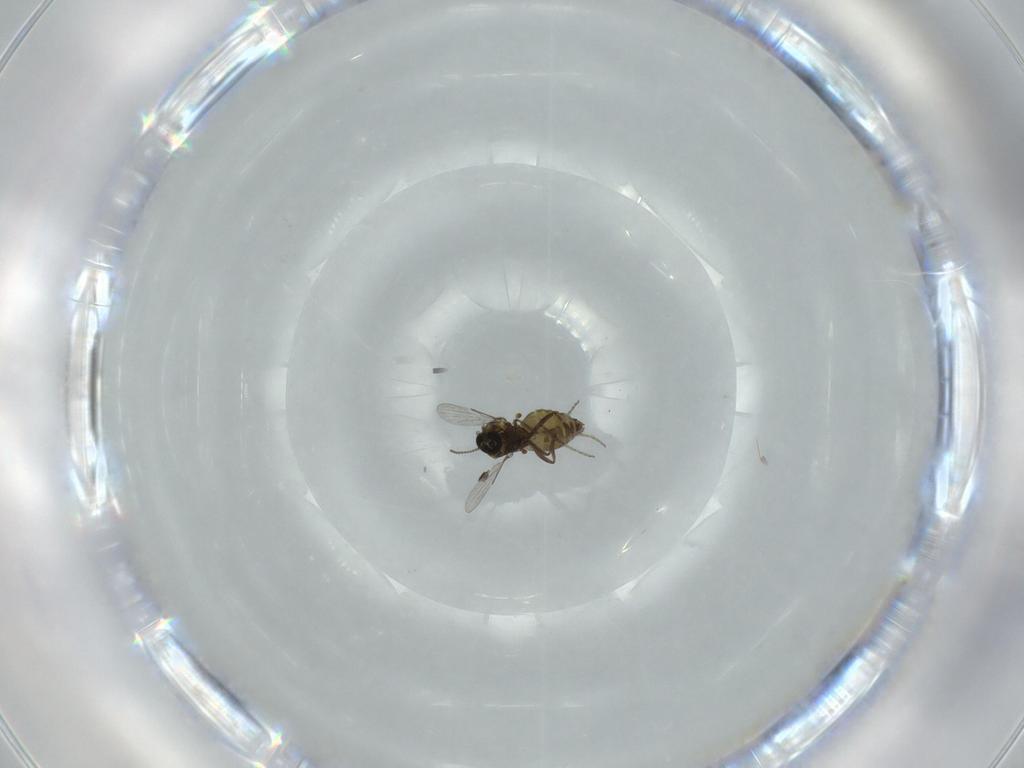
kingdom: Animalia
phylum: Arthropoda
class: Insecta
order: Diptera
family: Ceratopogonidae
